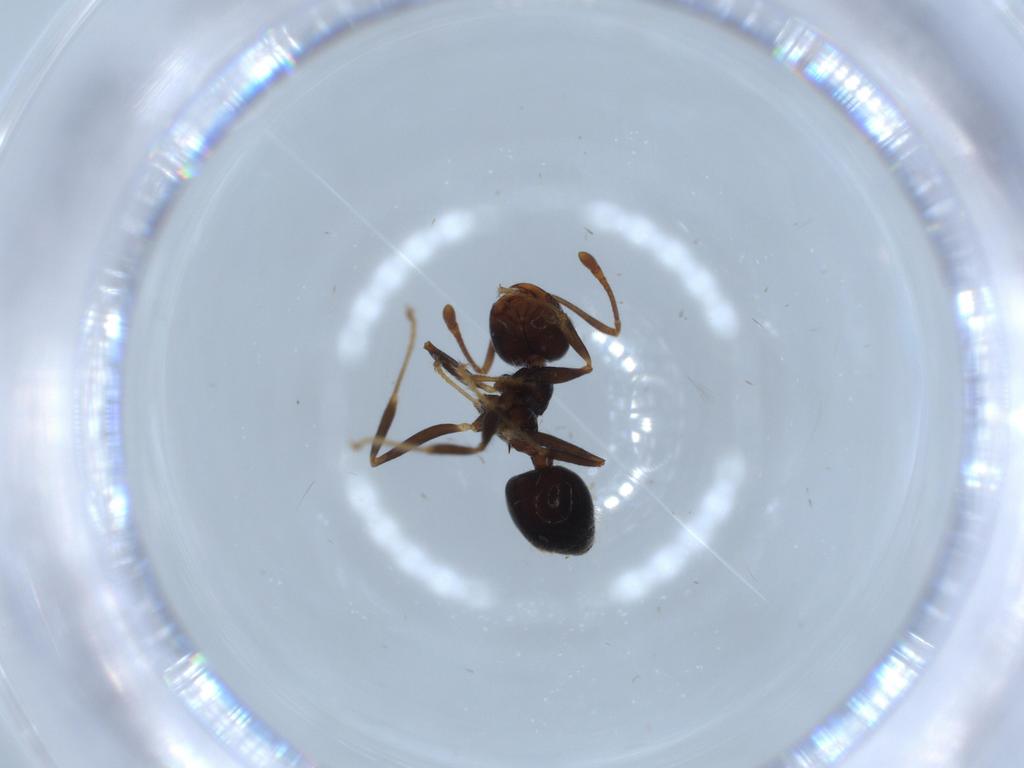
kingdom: Animalia
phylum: Arthropoda
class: Insecta
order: Hymenoptera
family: Formicidae
